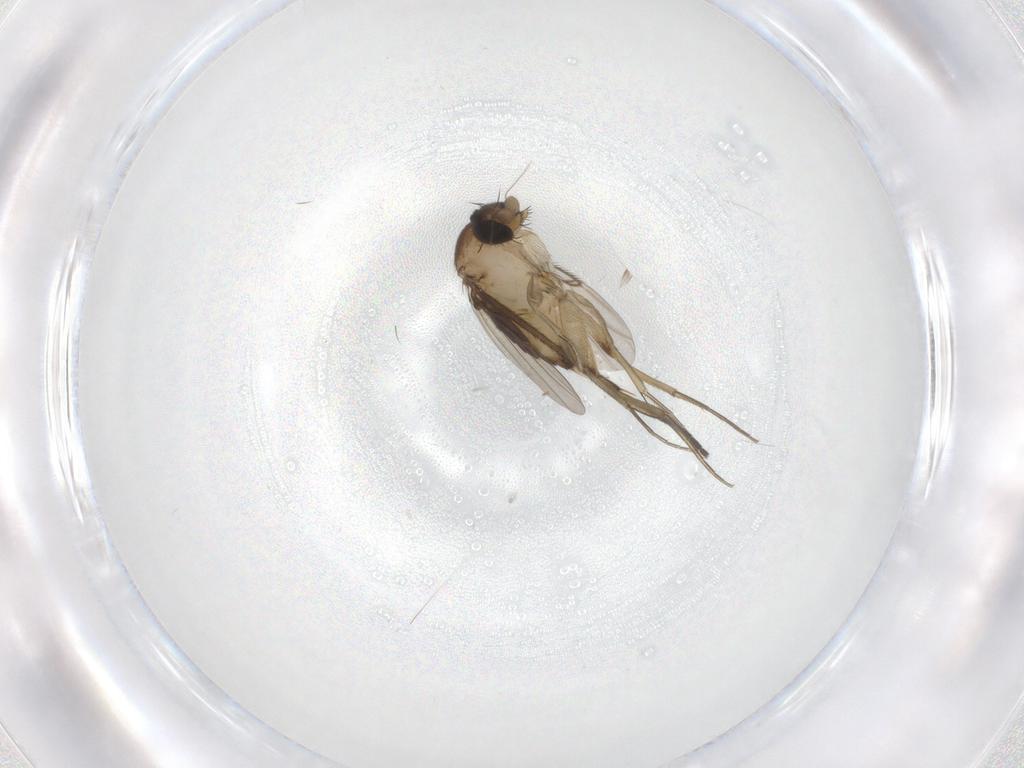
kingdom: Animalia
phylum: Arthropoda
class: Insecta
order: Diptera
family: Phoridae
